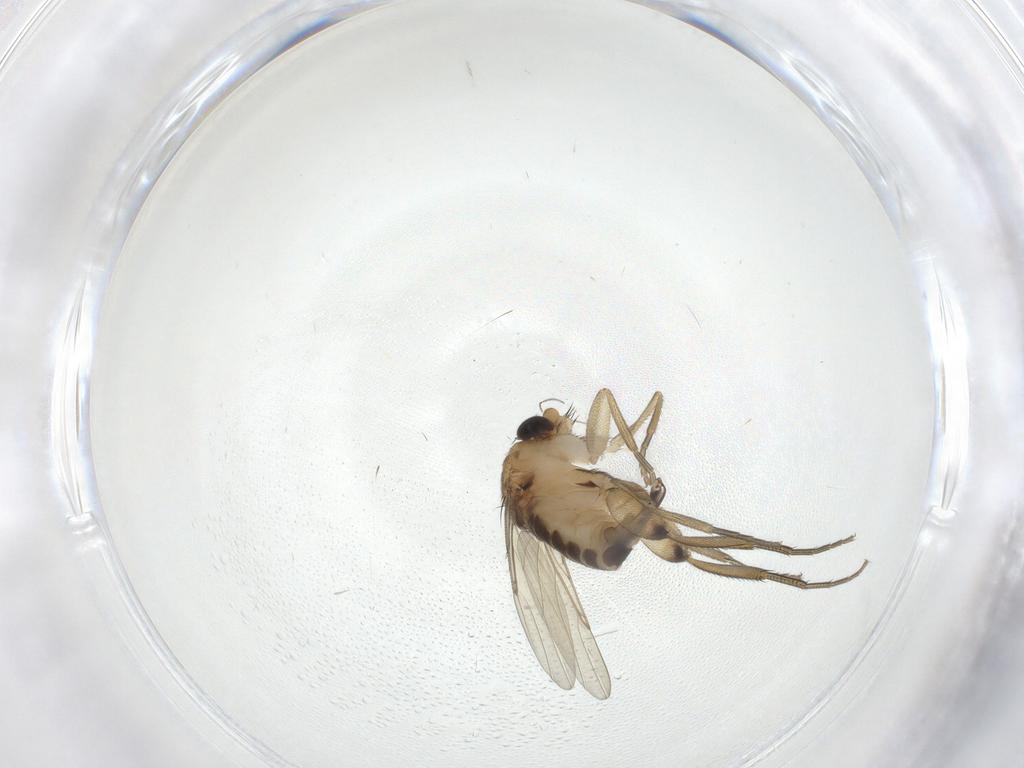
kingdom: Animalia
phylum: Arthropoda
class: Insecta
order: Diptera
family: Phoridae
